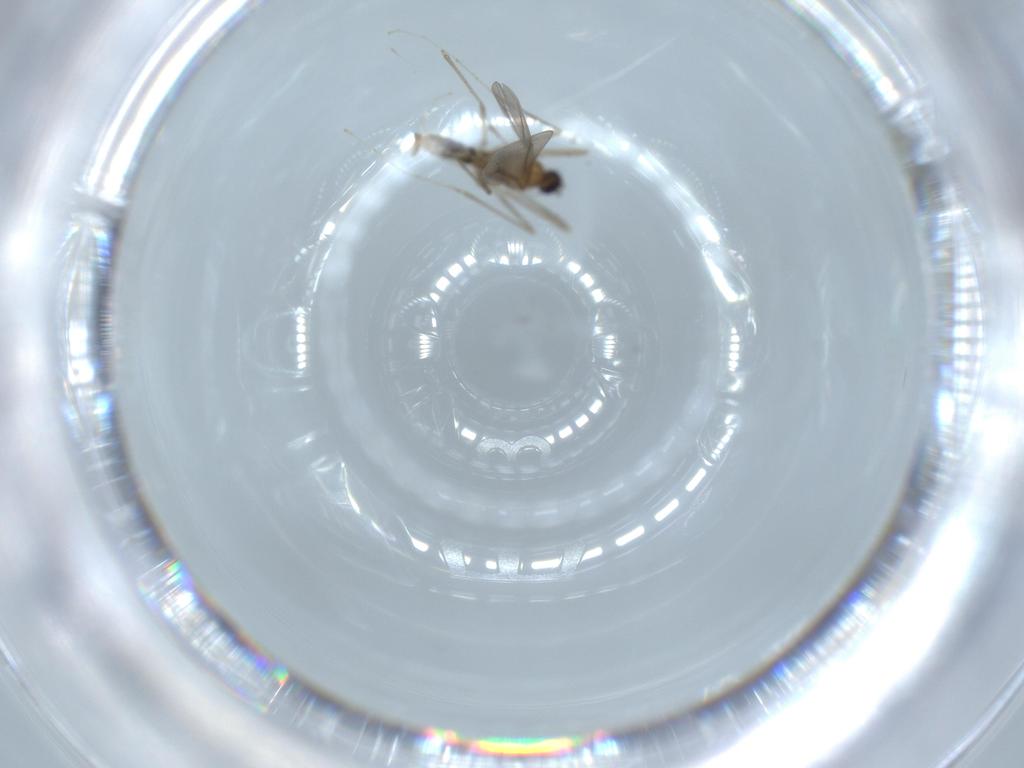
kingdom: Animalia
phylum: Arthropoda
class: Insecta
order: Diptera
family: Cecidomyiidae
